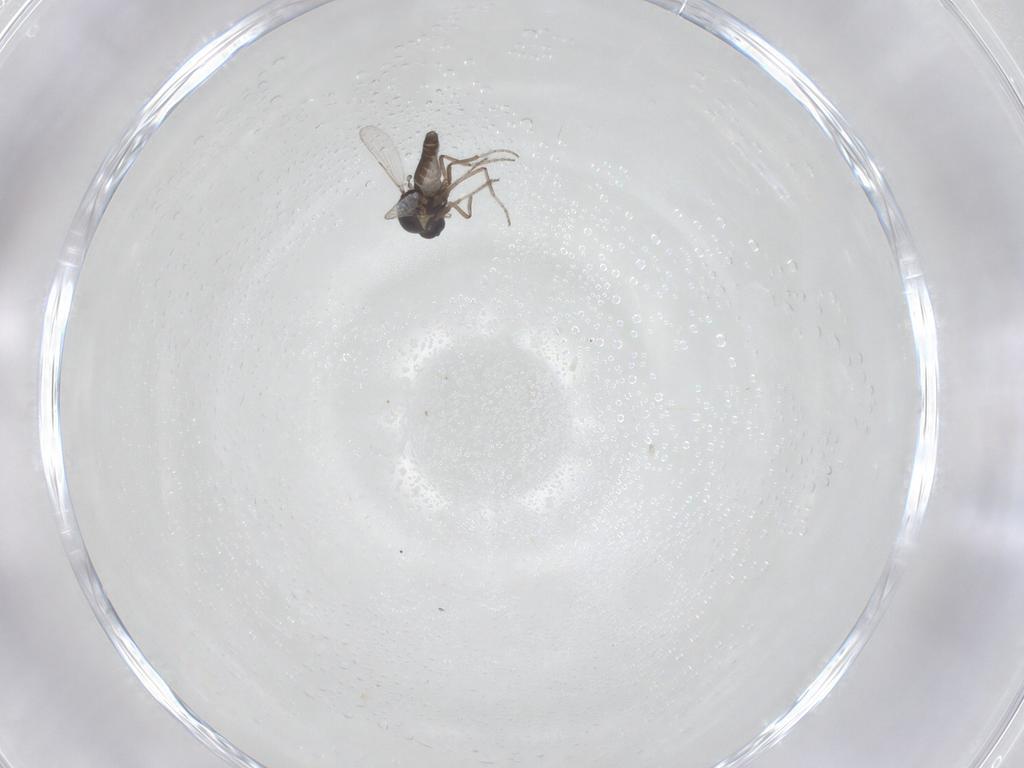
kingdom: Animalia
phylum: Arthropoda
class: Insecta
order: Diptera
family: Ceratopogonidae
